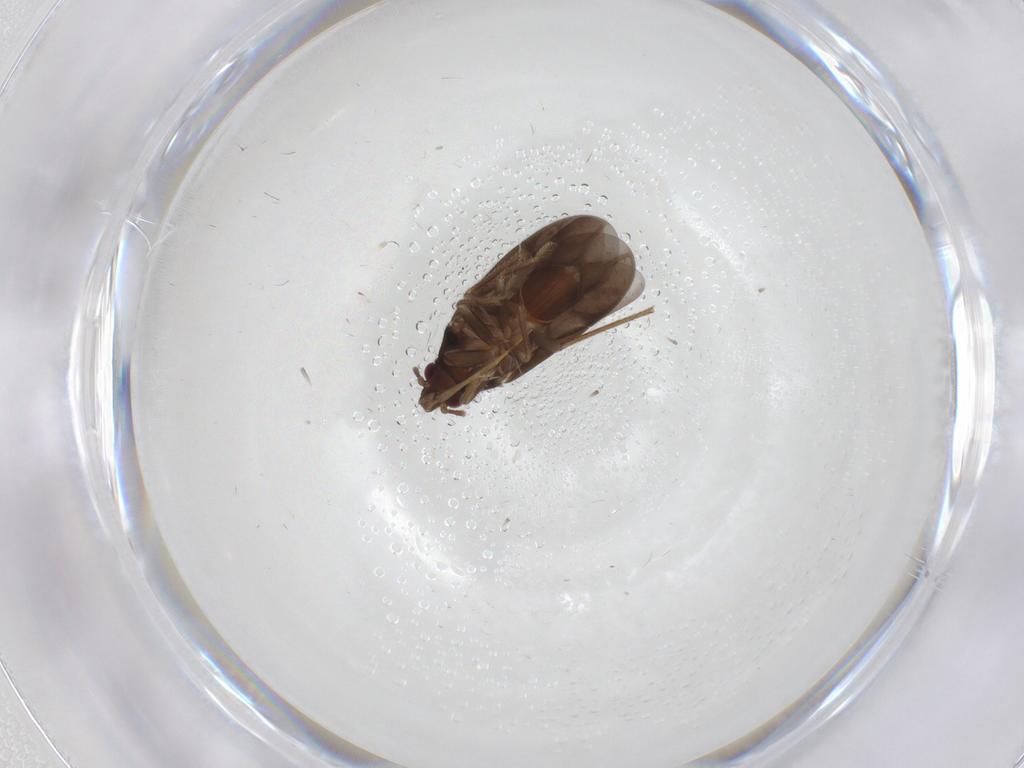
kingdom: Animalia
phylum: Arthropoda
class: Insecta
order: Hemiptera
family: Ceratocombidae
